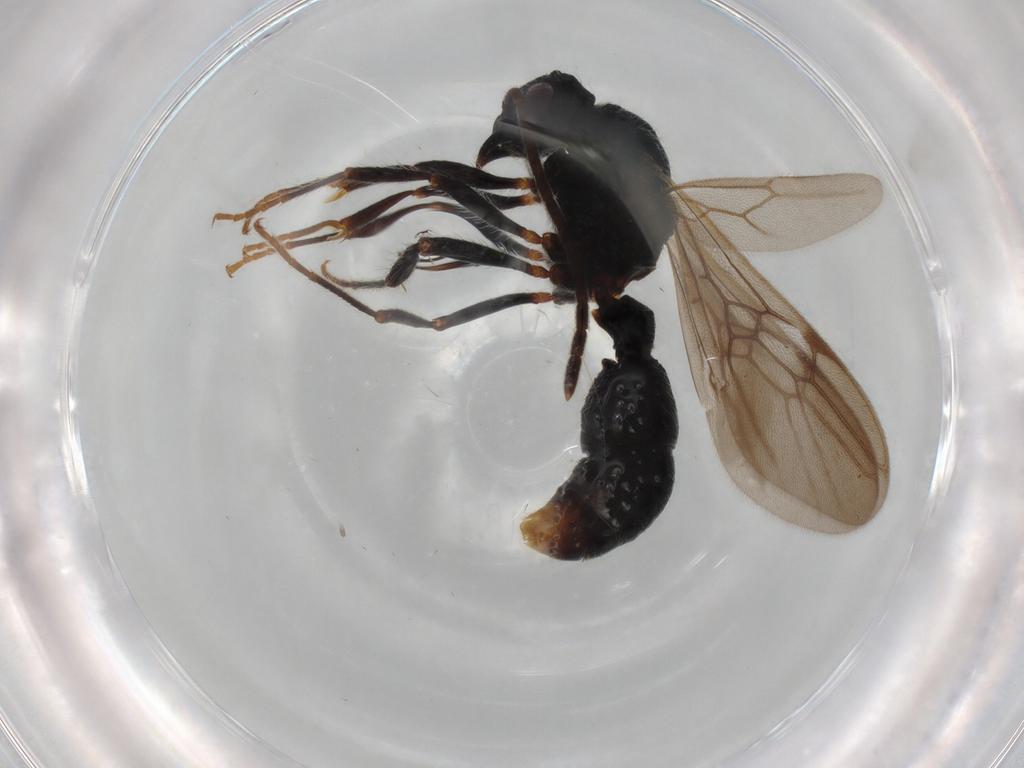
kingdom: Animalia
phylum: Arthropoda
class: Insecta
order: Hymenoptera
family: Formicidae
